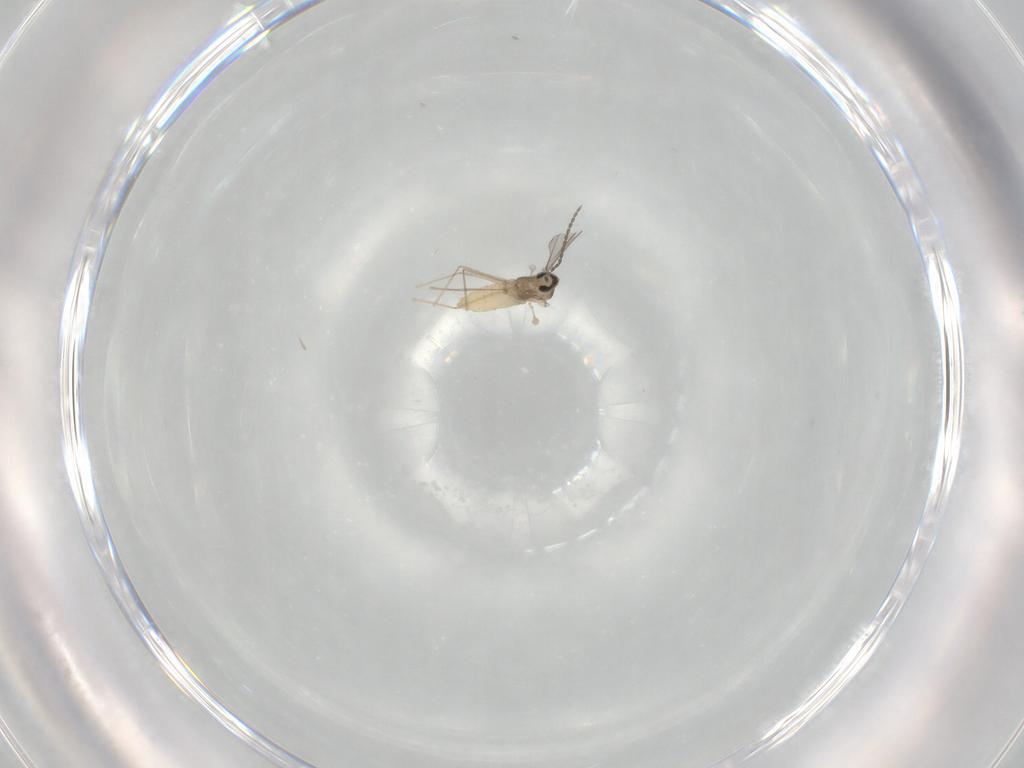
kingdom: Animalia
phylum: Arthropoda
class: Insecta
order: Diptera
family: Cecidomyiidae
